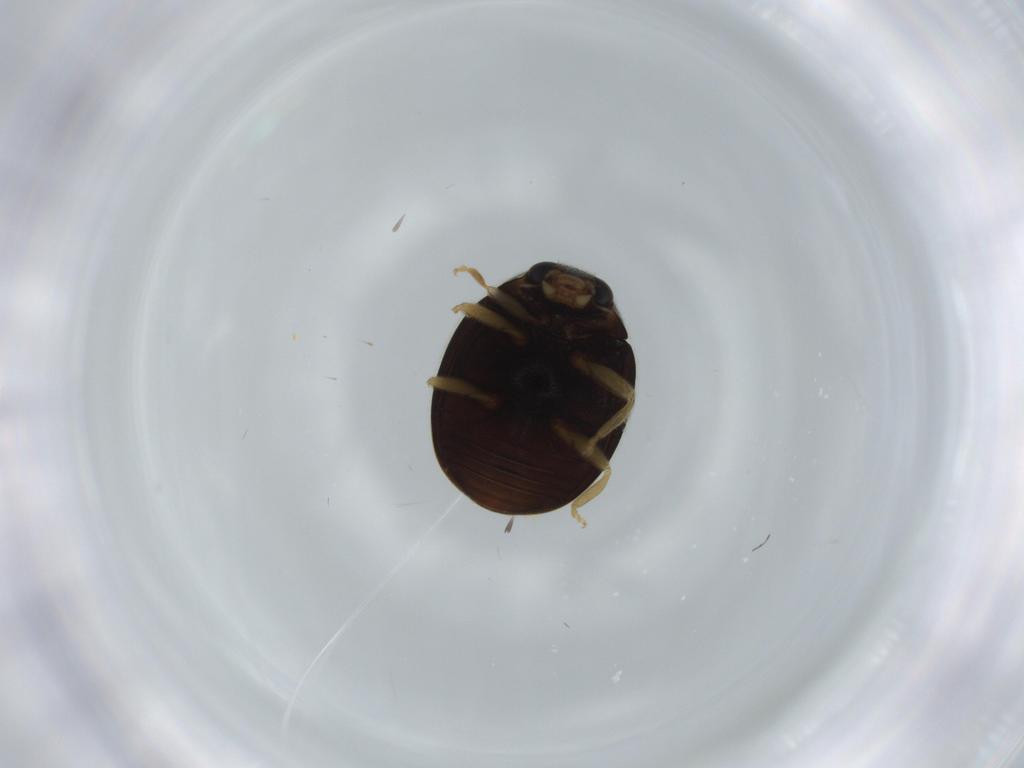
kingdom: Animalia
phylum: Arthropoda
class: Insecta
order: Coleoptera
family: Coccinellidae
